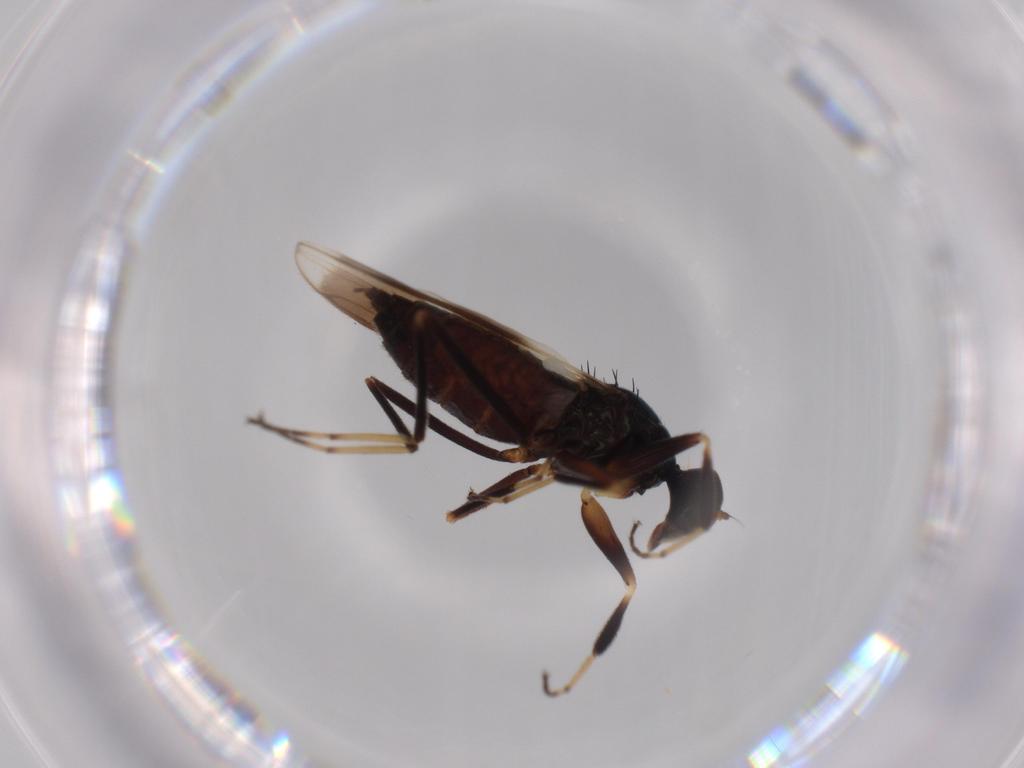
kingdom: Animalia
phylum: Arthropoda
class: Insecta
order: Diptera
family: Hybotidae
